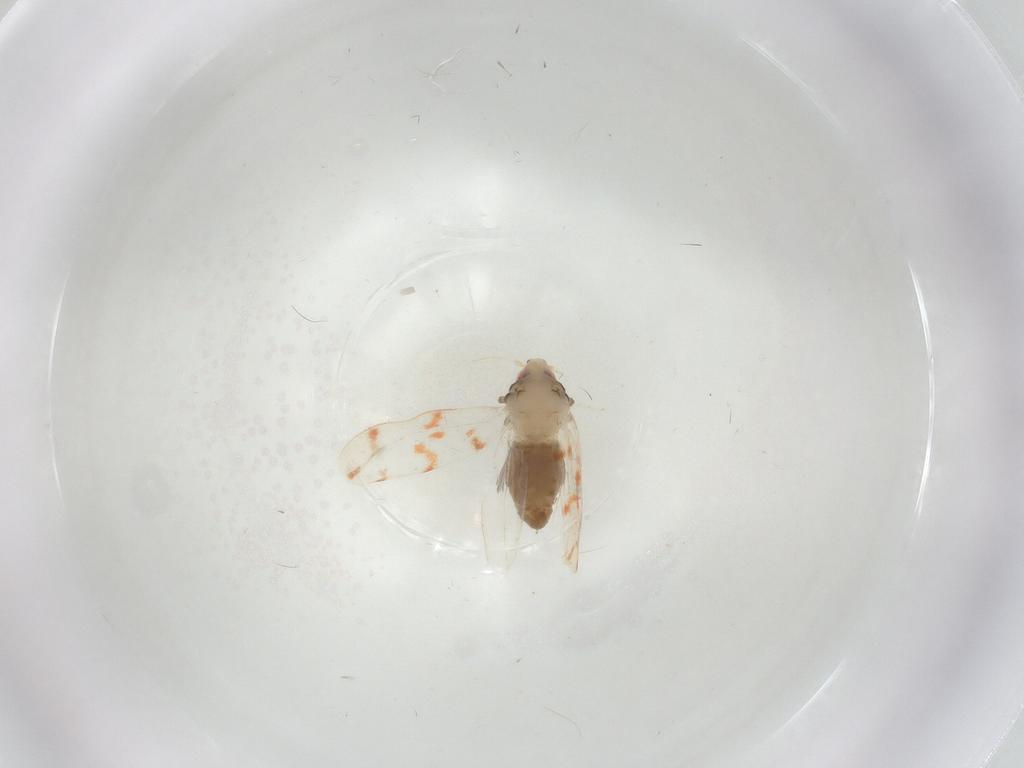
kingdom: Animalia
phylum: Arthropoda
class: Insecta
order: Hemiptera
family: Aleyrodidae
